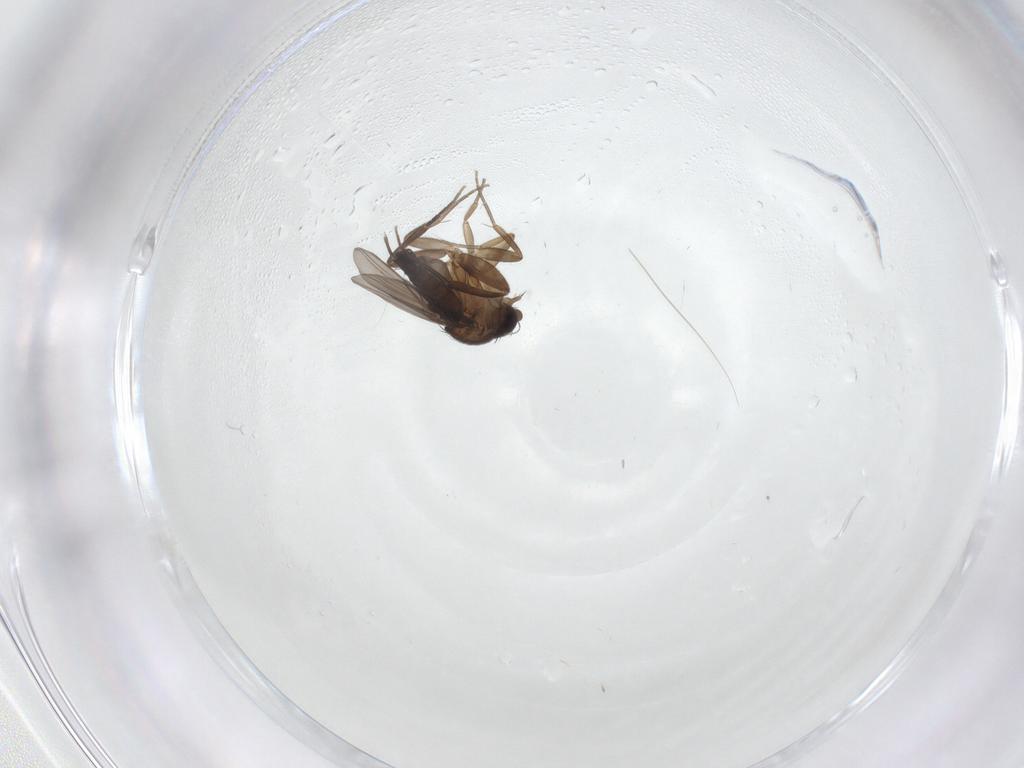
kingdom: Animalia
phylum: Arthropoda
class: Insecta
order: Diptera
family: Phoridae
